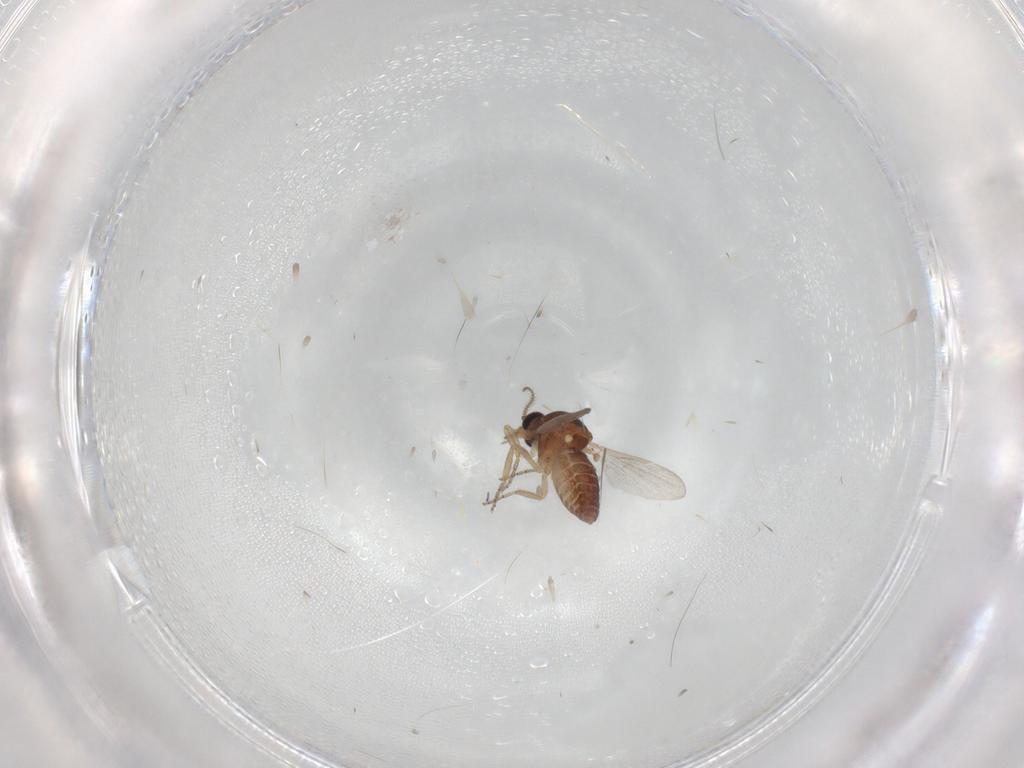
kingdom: Animalia
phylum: Arthropoda
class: Insecta
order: Diptera
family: Ceratopogonidae
